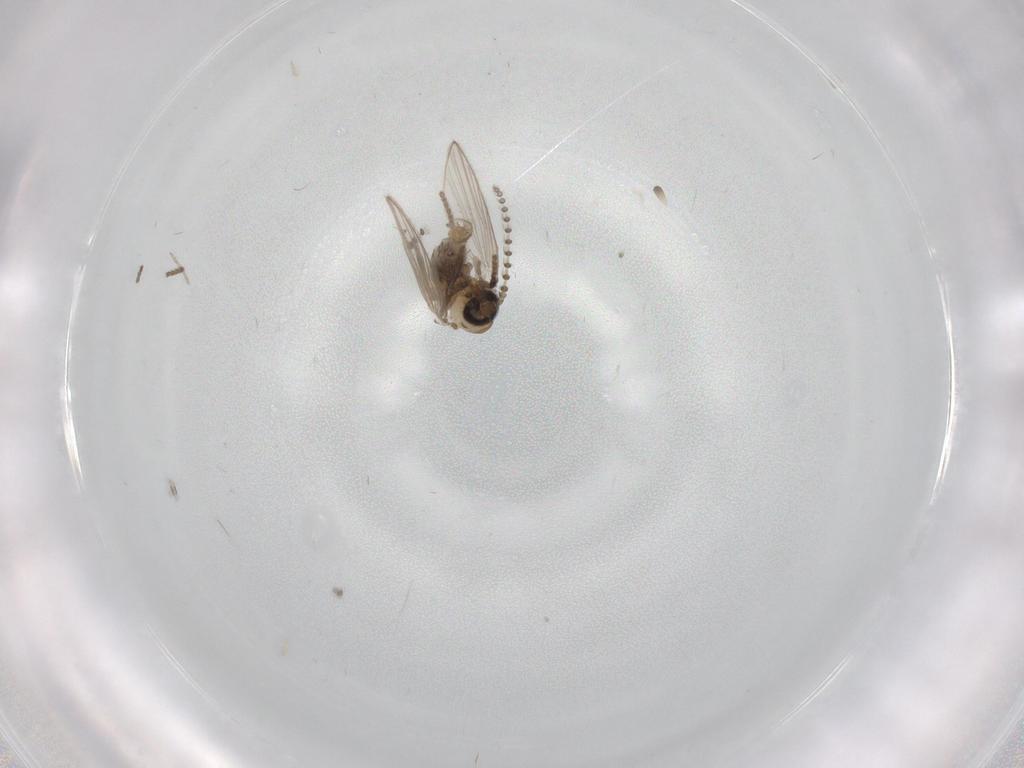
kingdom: Animalia
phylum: Arthropoda
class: Insecta
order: Diptera
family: Psychodidae
